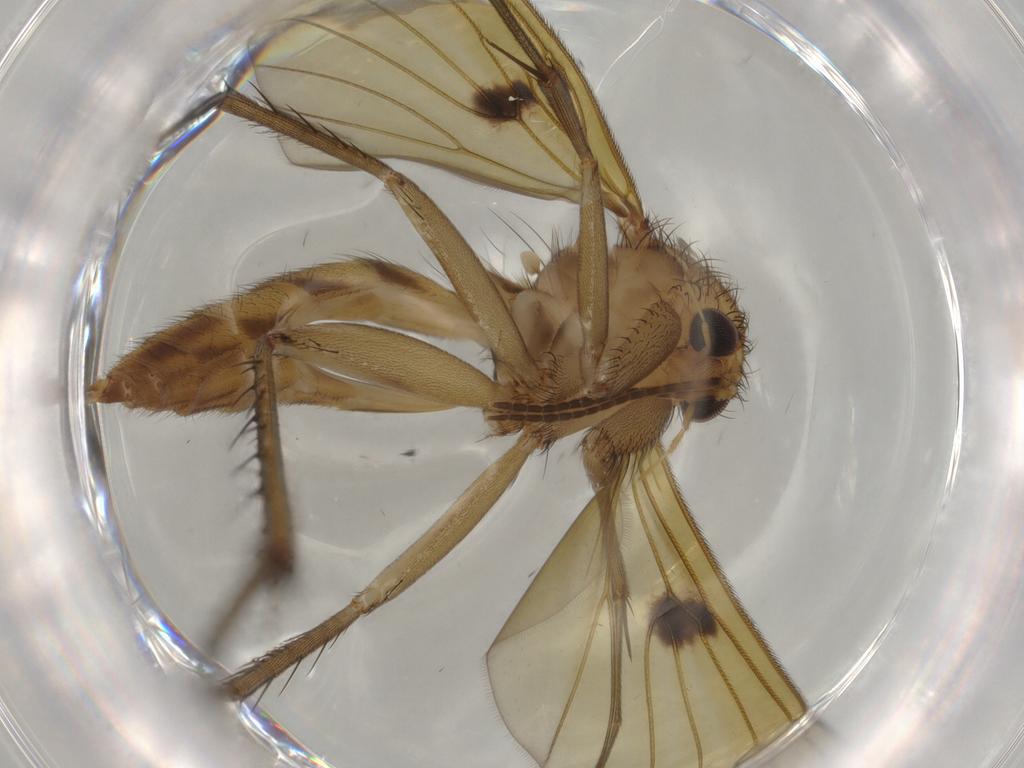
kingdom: Animalia
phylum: Arthropoda
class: Insecta
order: Diptera
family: Mycetophilidae
